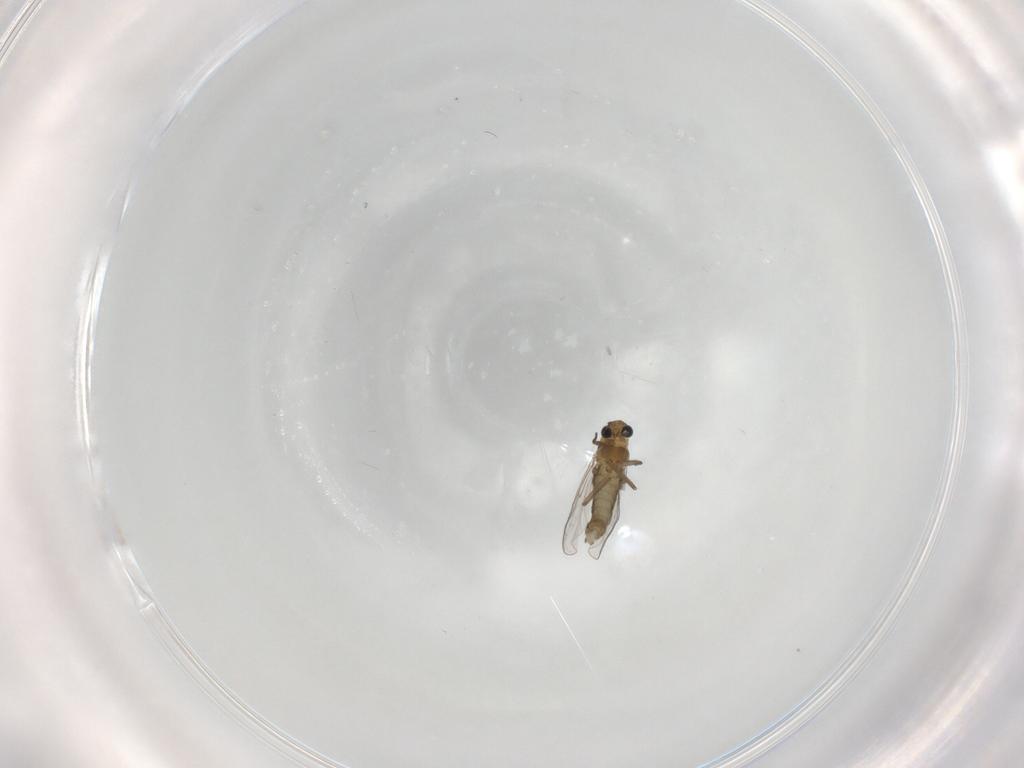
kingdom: Animalia
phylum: Arthropoda
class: Insecta
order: Diptera
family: Chironomidae
